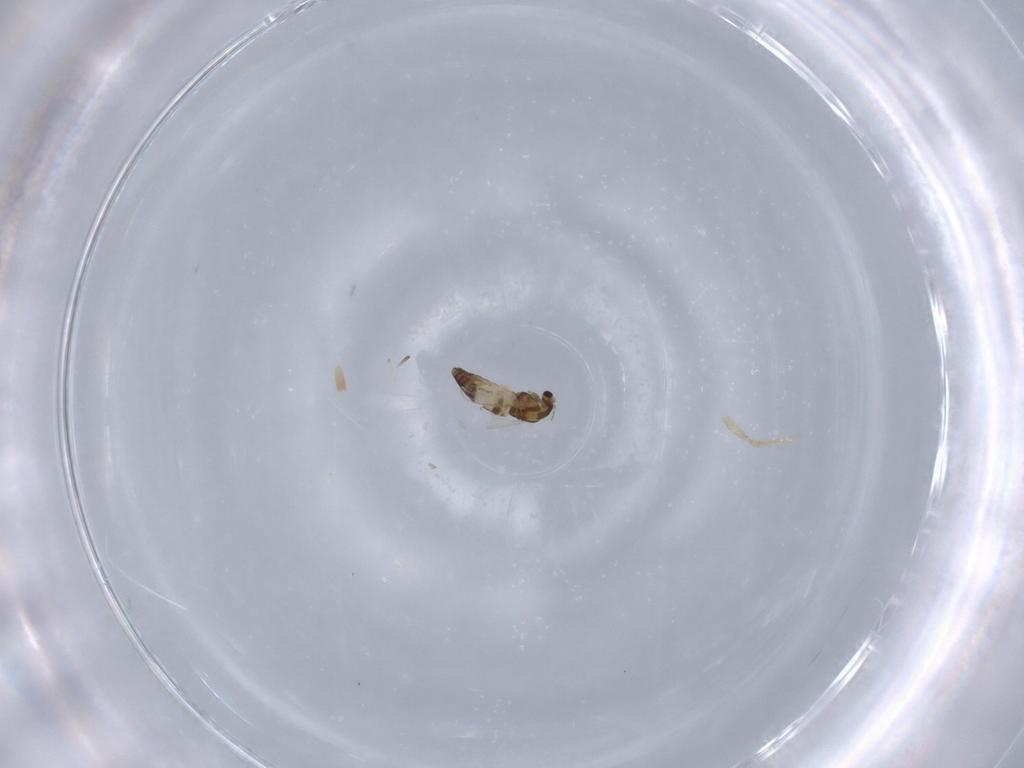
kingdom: Animalia
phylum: Arthropoda
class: Insecta
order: Diptera
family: Chironomidae
